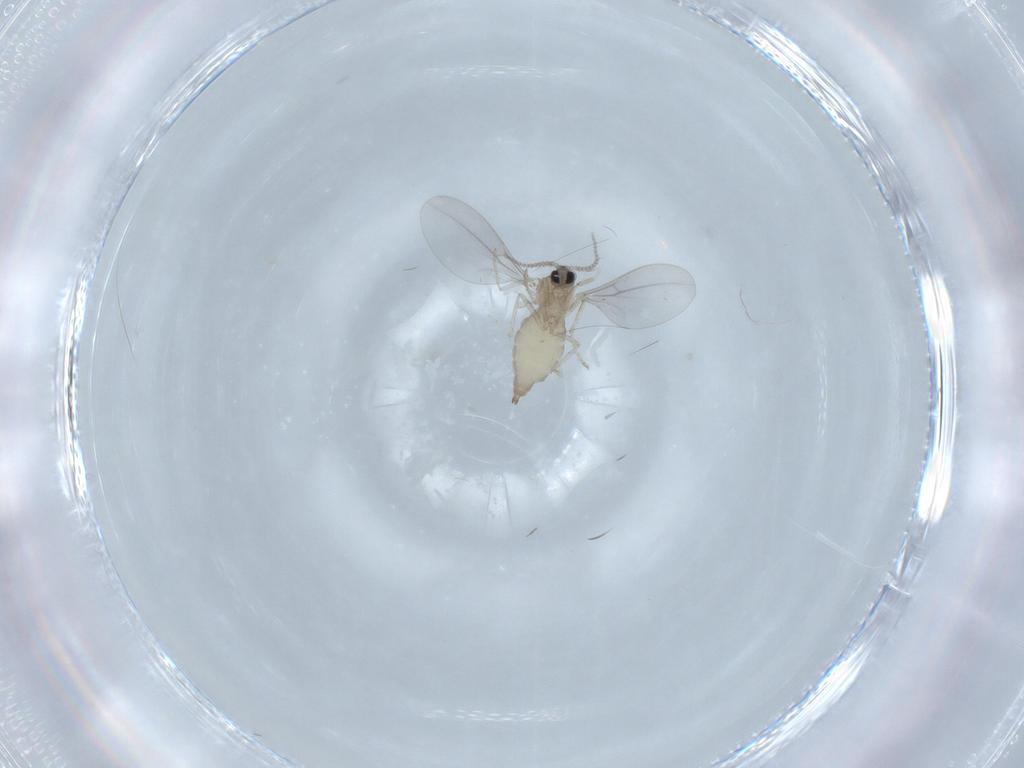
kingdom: Animalia
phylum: Arthropoda
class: Insecta
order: Diptera
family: Cecidomyiidae
